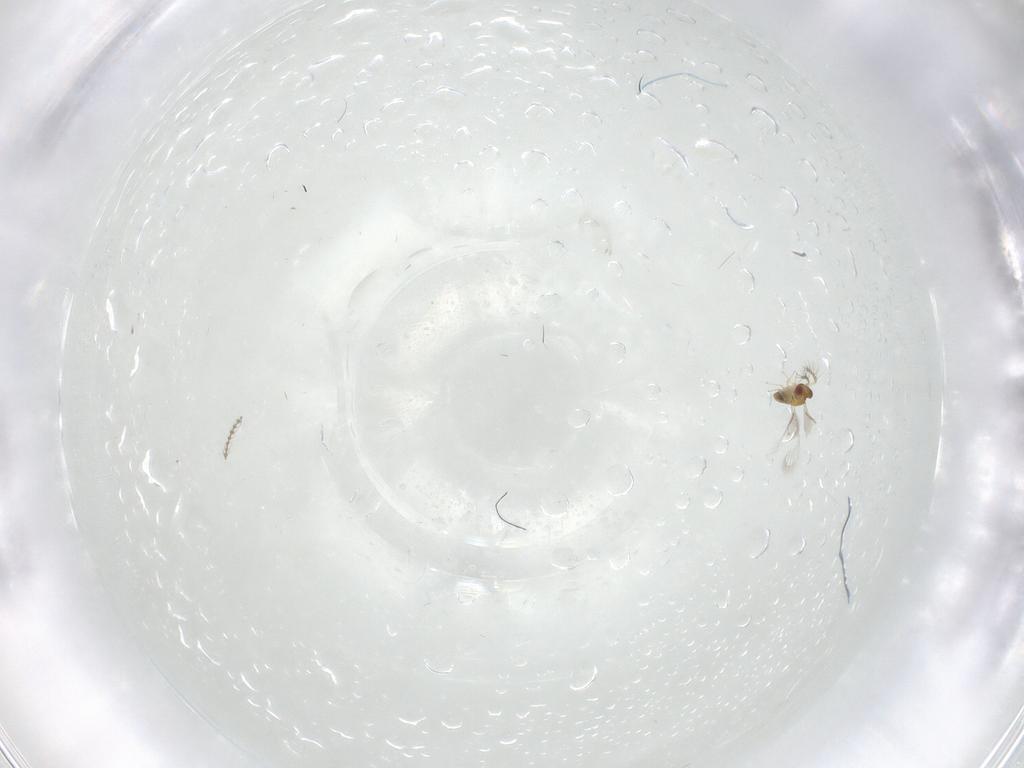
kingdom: Animalia
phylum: Arthropoda
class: Insecta
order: Hymenoptera
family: Trichogrammatidae
